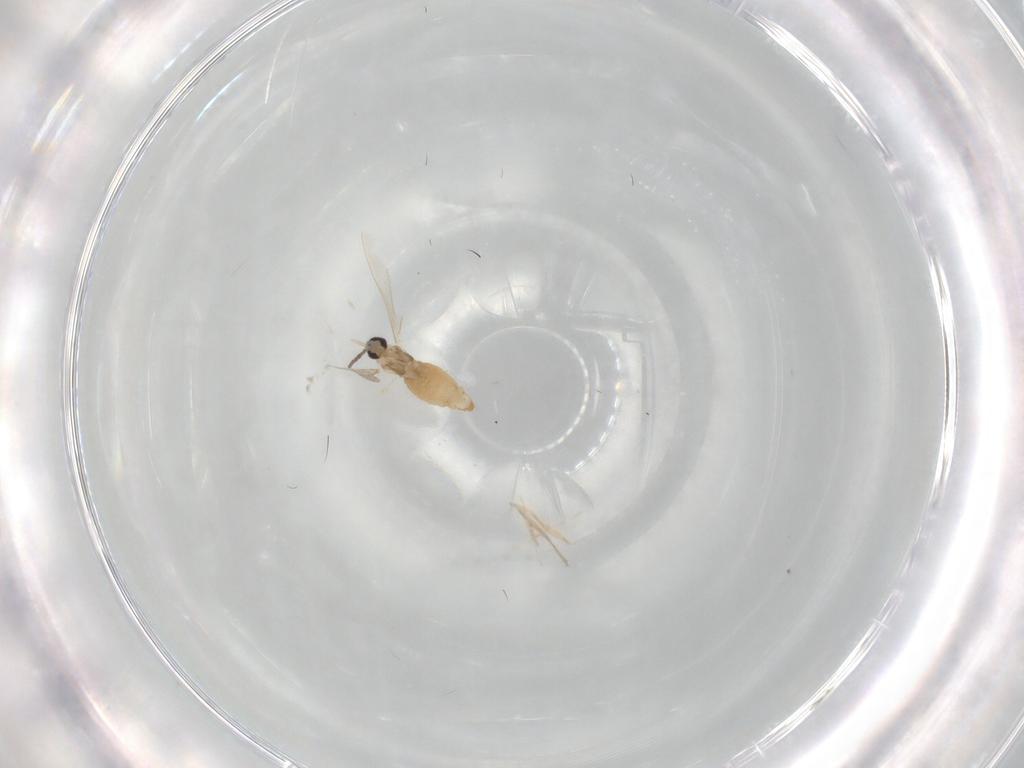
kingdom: Animalia
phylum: Arthropoda
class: Insecta
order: Diptera
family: Cecidomyiidae
